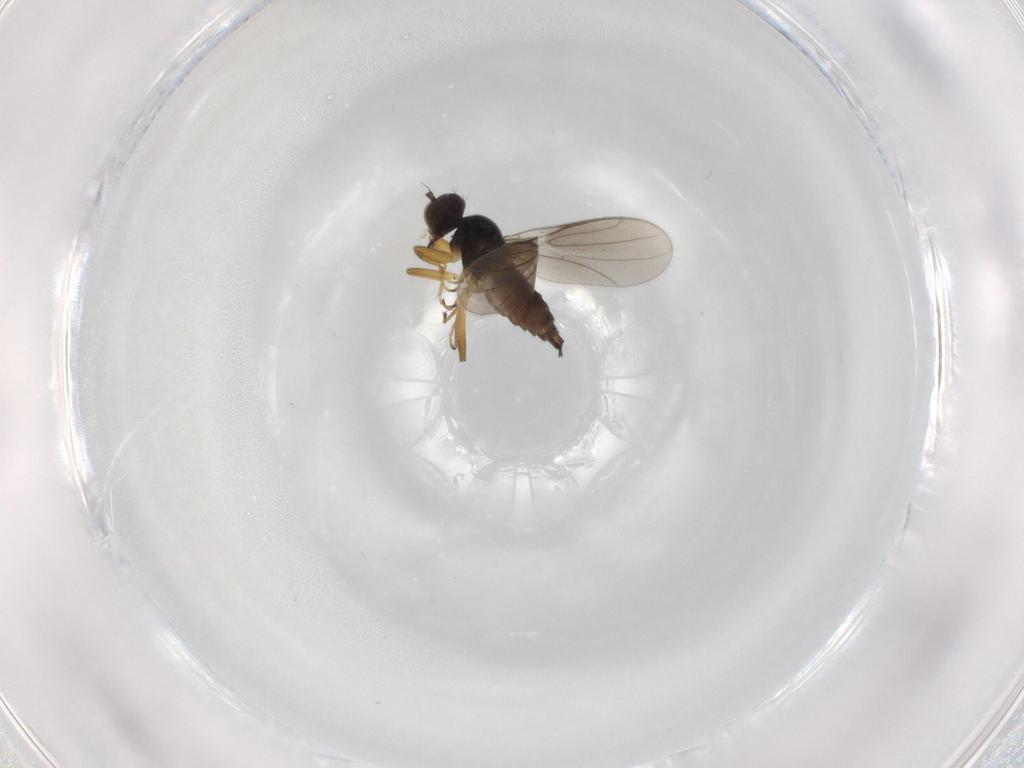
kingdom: Animalia
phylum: Arthropoda
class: Insecta
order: Diptera
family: Hybotidae
